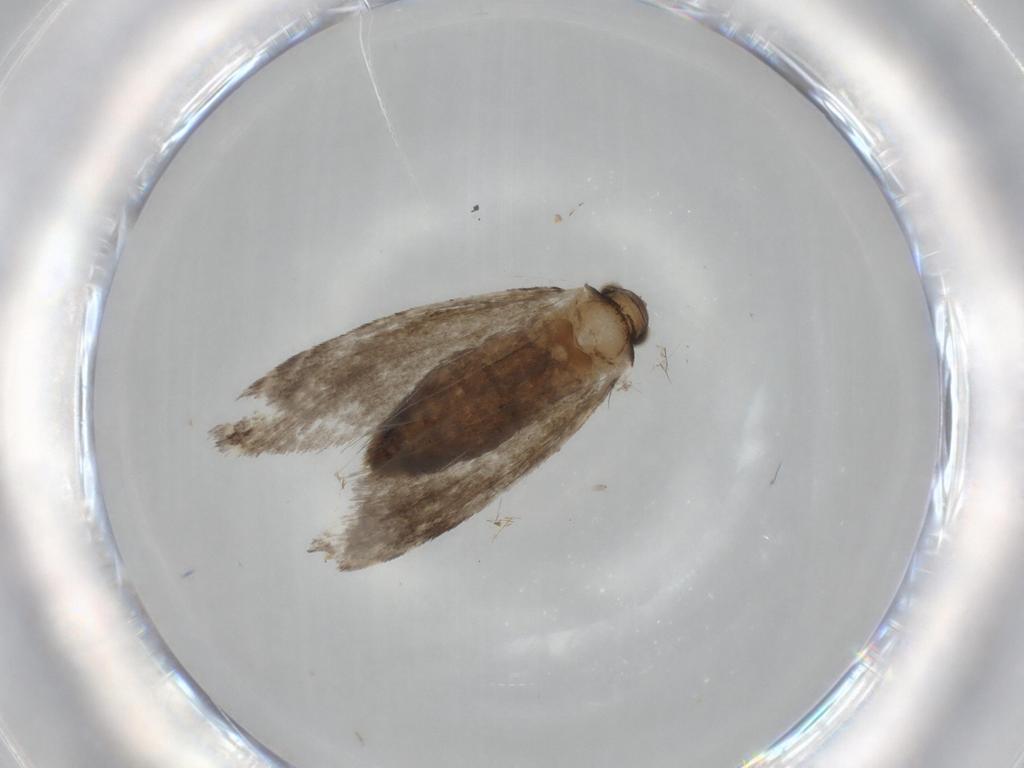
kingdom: Animalia
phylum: Arthropoda
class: Insecta
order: Lepidoptera
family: Tineidae
